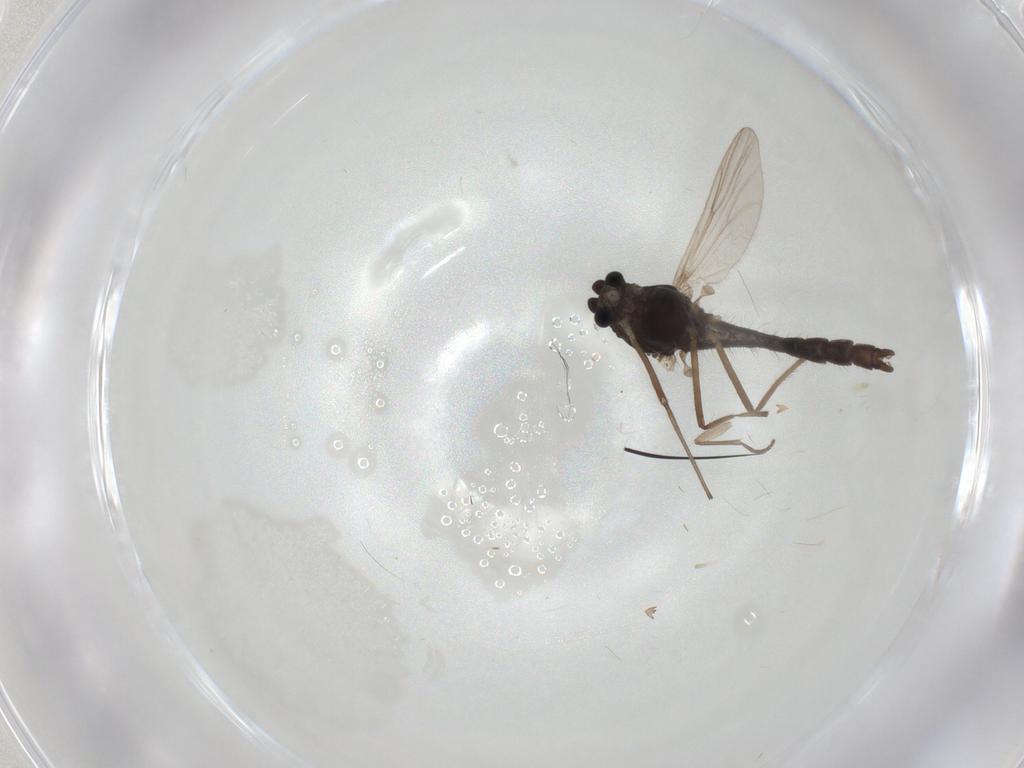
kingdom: Animalia
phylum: Arthropoda
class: Insecta
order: Diptera
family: Chironomidae
